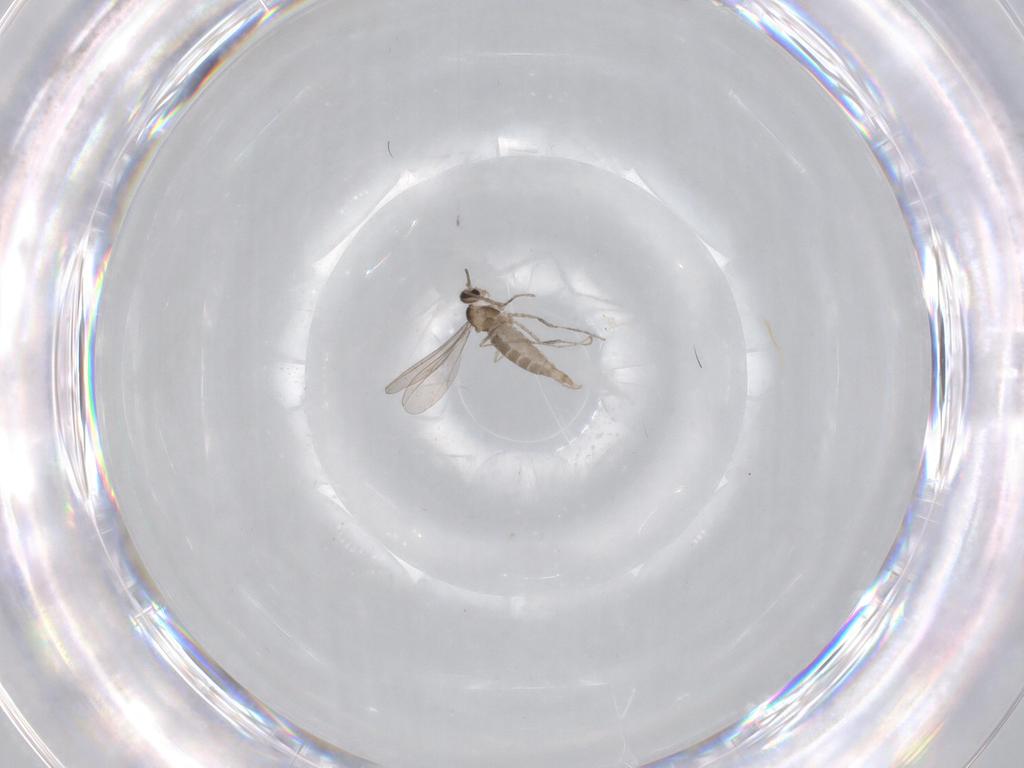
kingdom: Animalia
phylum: Arthropoda
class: Insecta
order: Diptera
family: Chironomidae
